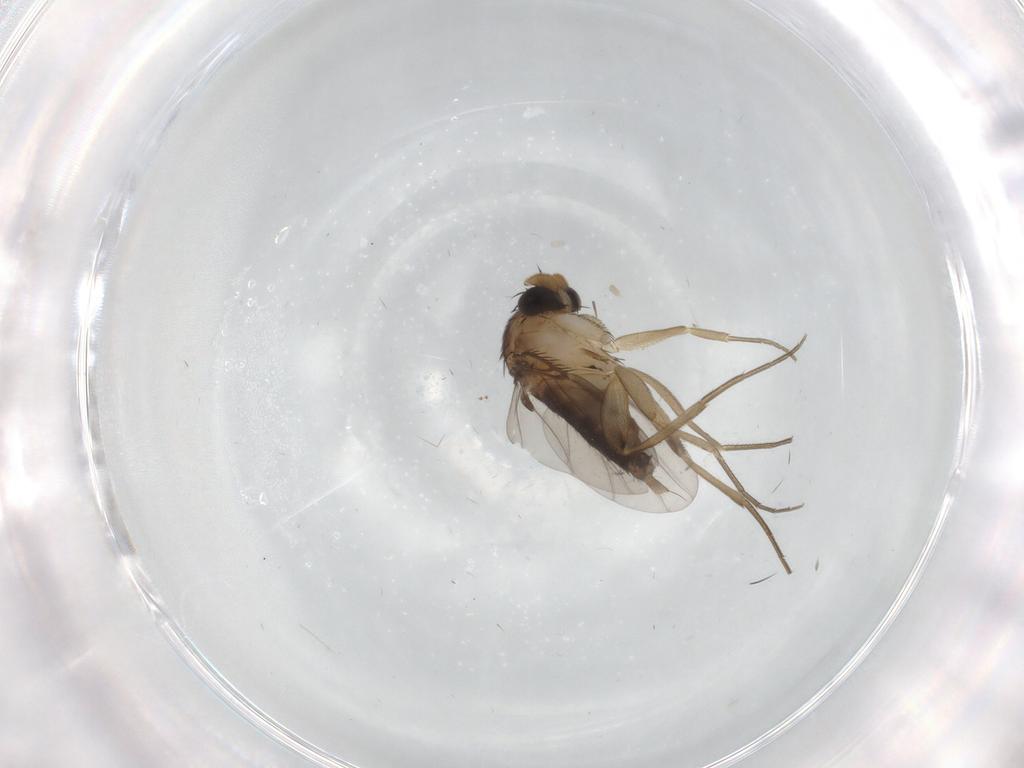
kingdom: Animalia
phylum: Arthropoda
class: Insecta
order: Diptera
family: Phoridae
